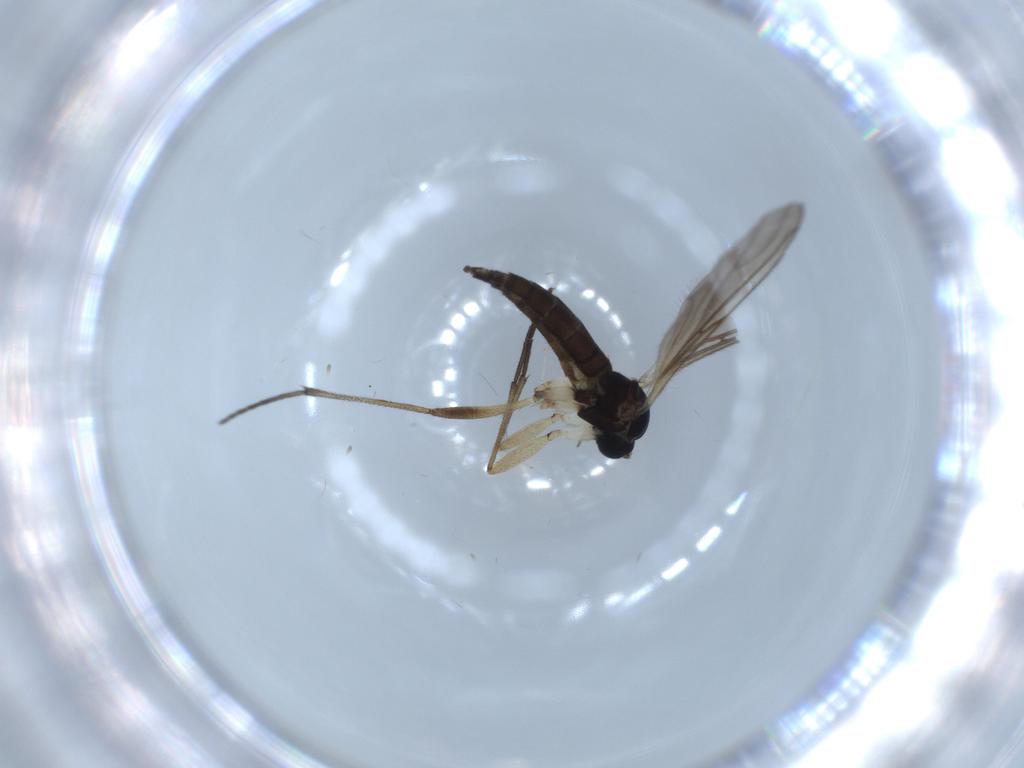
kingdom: Animalia
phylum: Arthropoda
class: Insecta
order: Diptera
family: Sciaridae
